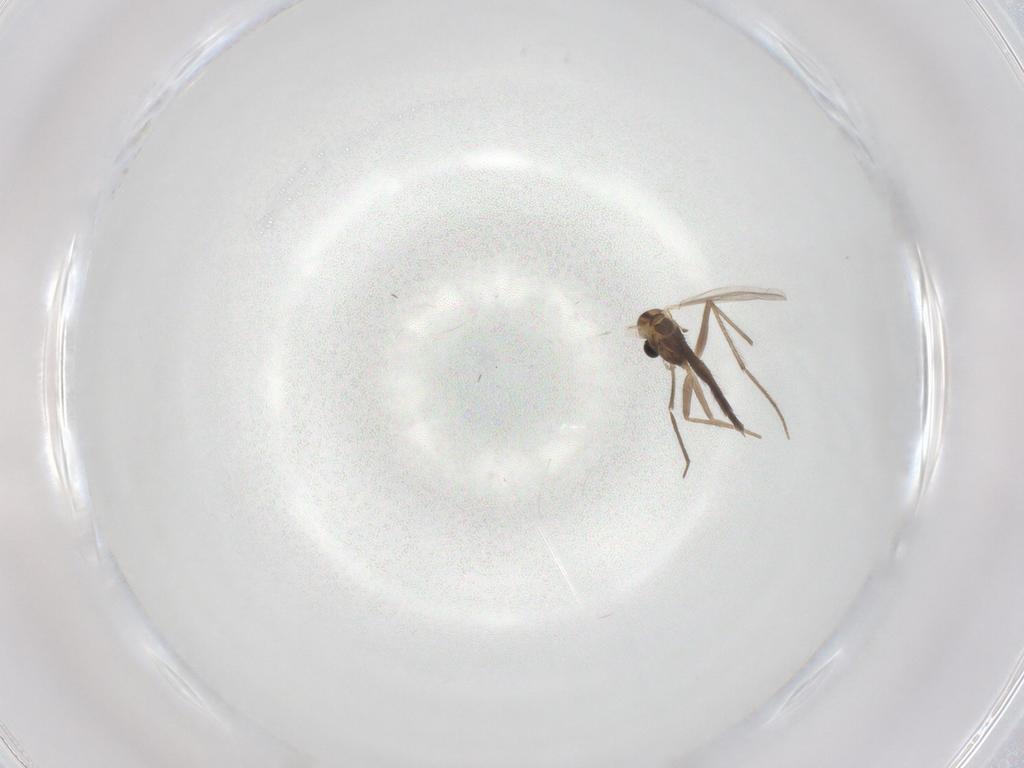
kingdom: Animalia
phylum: Arthropoda
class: Insecta
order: Diptera
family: Chironomidae
